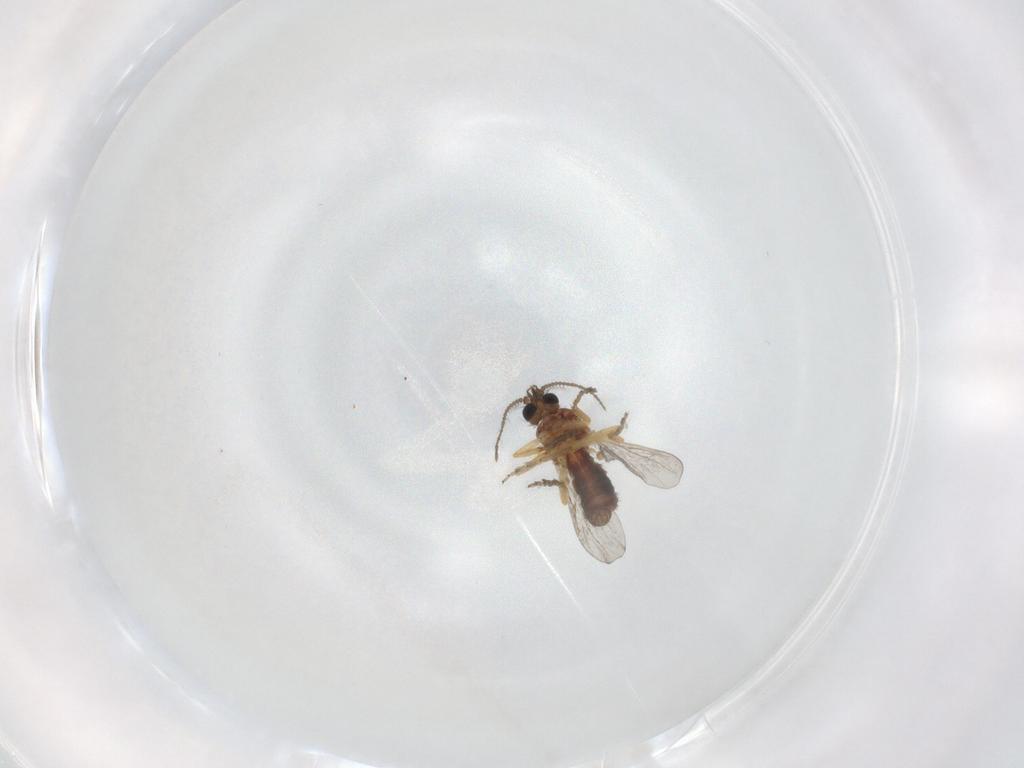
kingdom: Animalia
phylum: Arthropoda
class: Insecta
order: Diptera
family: Ceratopogonidae
